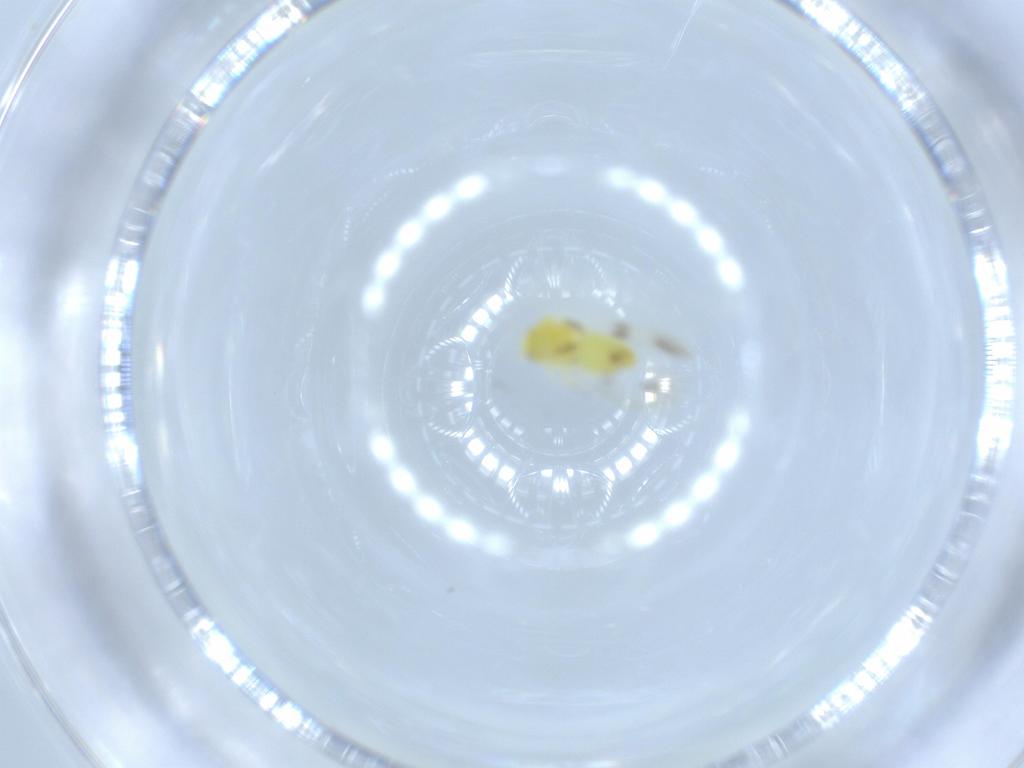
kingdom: Animalia
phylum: Arthropoda
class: Insecta
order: Hemiptera
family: Aleyrodidae
